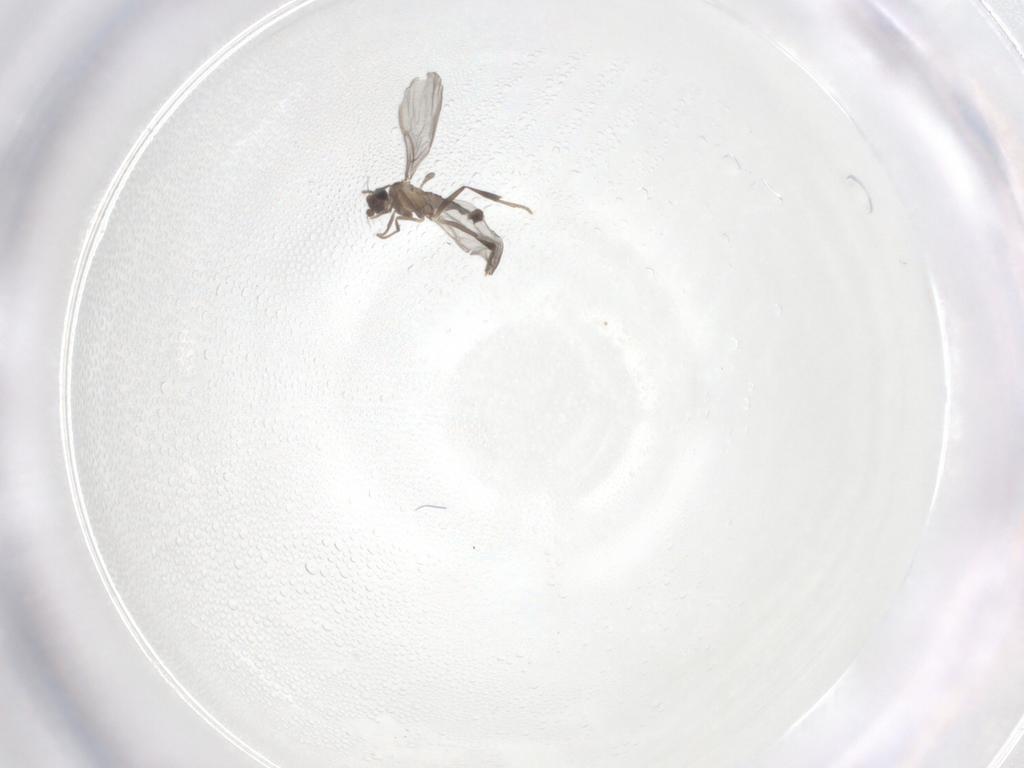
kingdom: Animalia
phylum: Arthropoda
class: Insecta
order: Diptera
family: Phoridae
